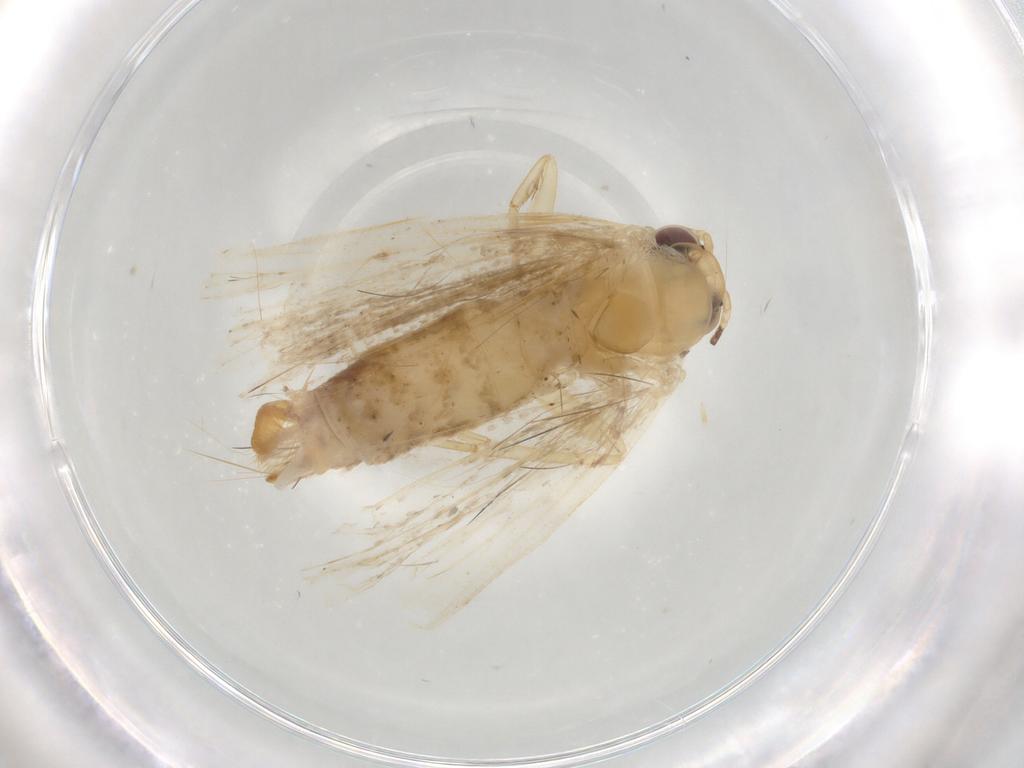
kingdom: Animalia
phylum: Arthropoda
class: Insecta
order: Lepidoptera
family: Erebidae
